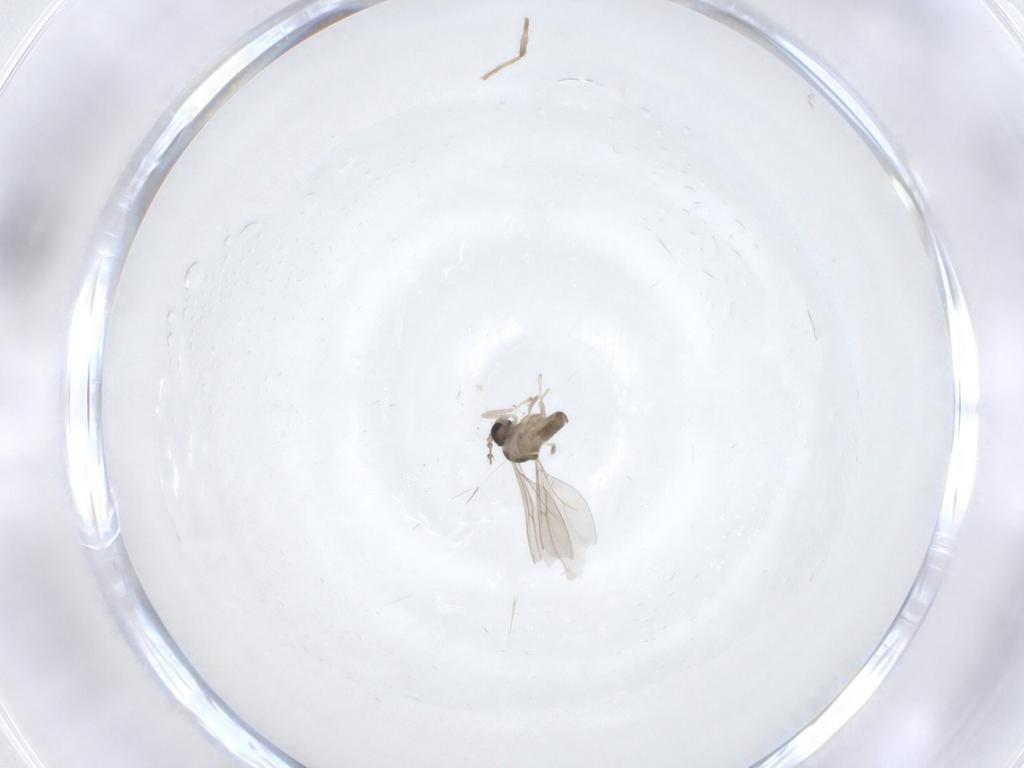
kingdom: Animalia
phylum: Arthropoda
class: Insecta
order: Diptera
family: Cecidomyiidae
